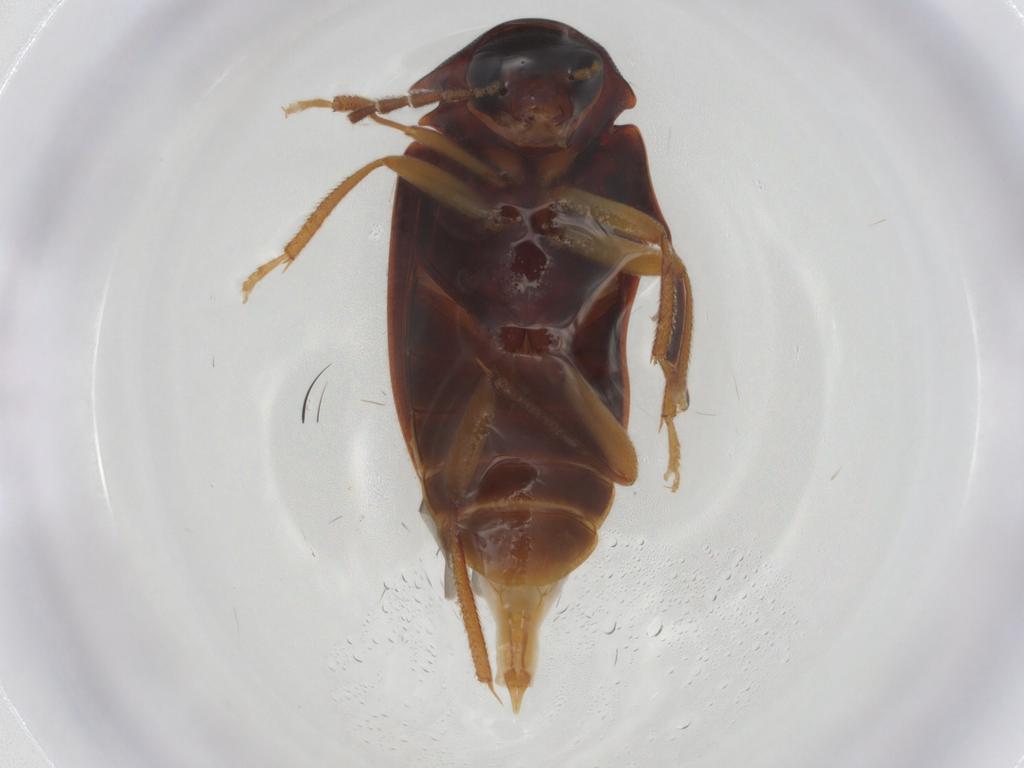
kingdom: Animalia
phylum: Arthropoda
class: Insecta
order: Coleoptera
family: Ptilodactylidae
